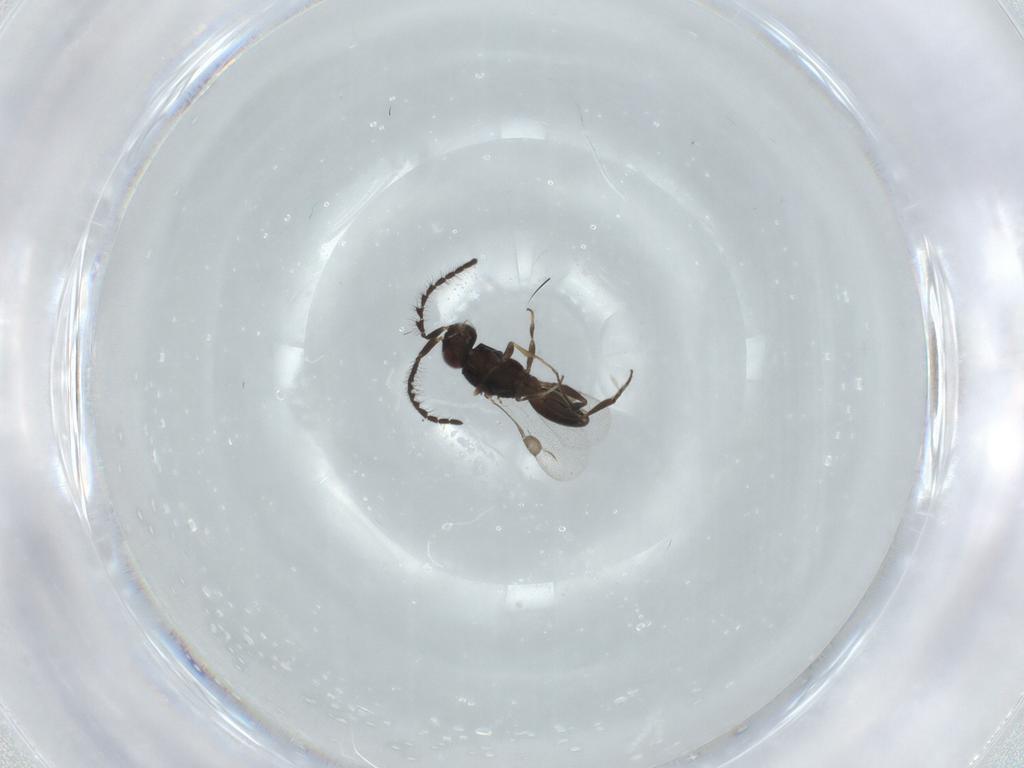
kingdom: Animalia
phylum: Arthropoda
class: Insecta
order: Hymenoptera
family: Megaspilidae
